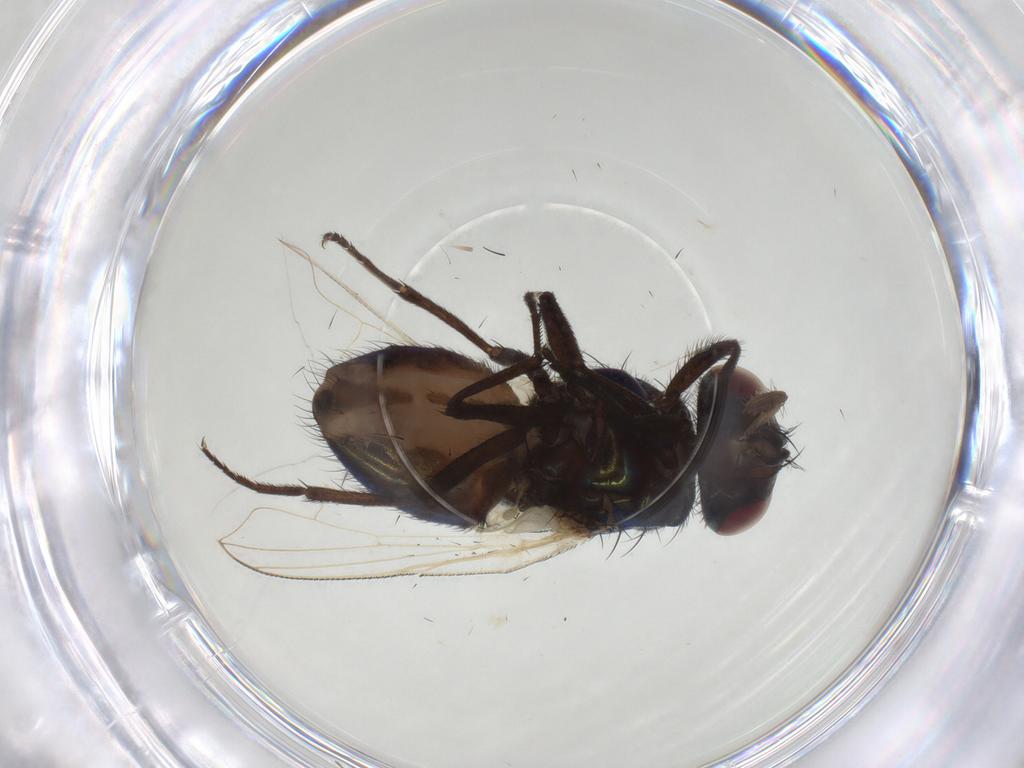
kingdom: Animalia
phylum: Arthropoda
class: Insecta
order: Diptera
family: Muscidae
